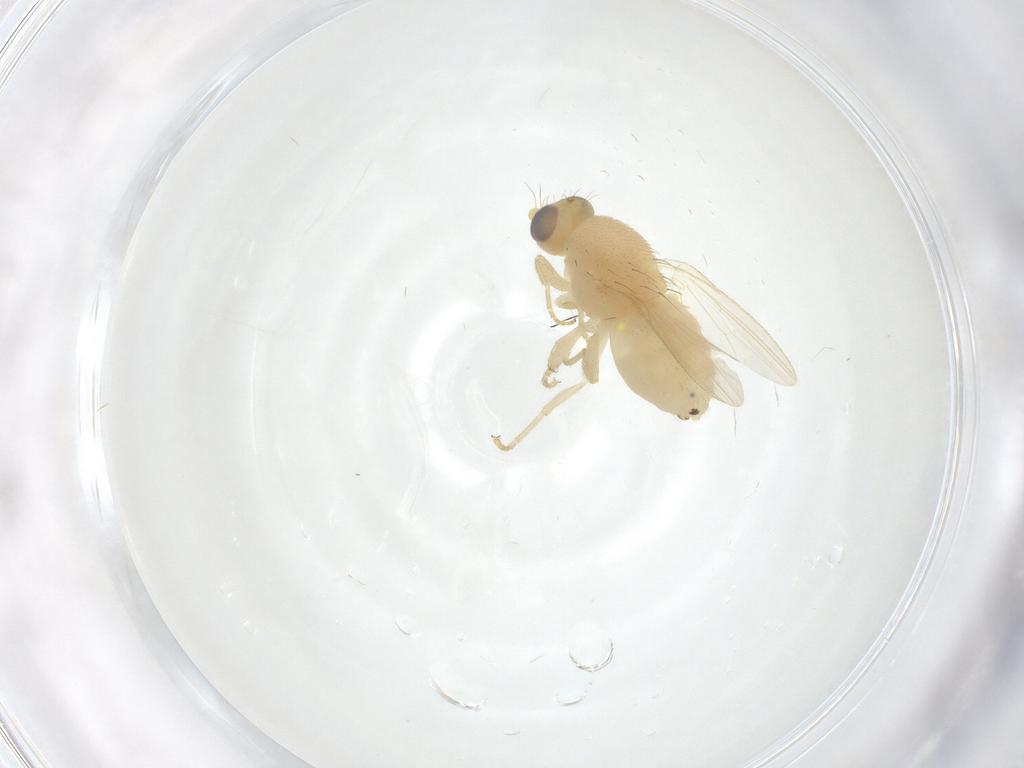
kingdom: Animalia
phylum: Arthropoda
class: Insecta
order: Diptera
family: Chyromyidae
